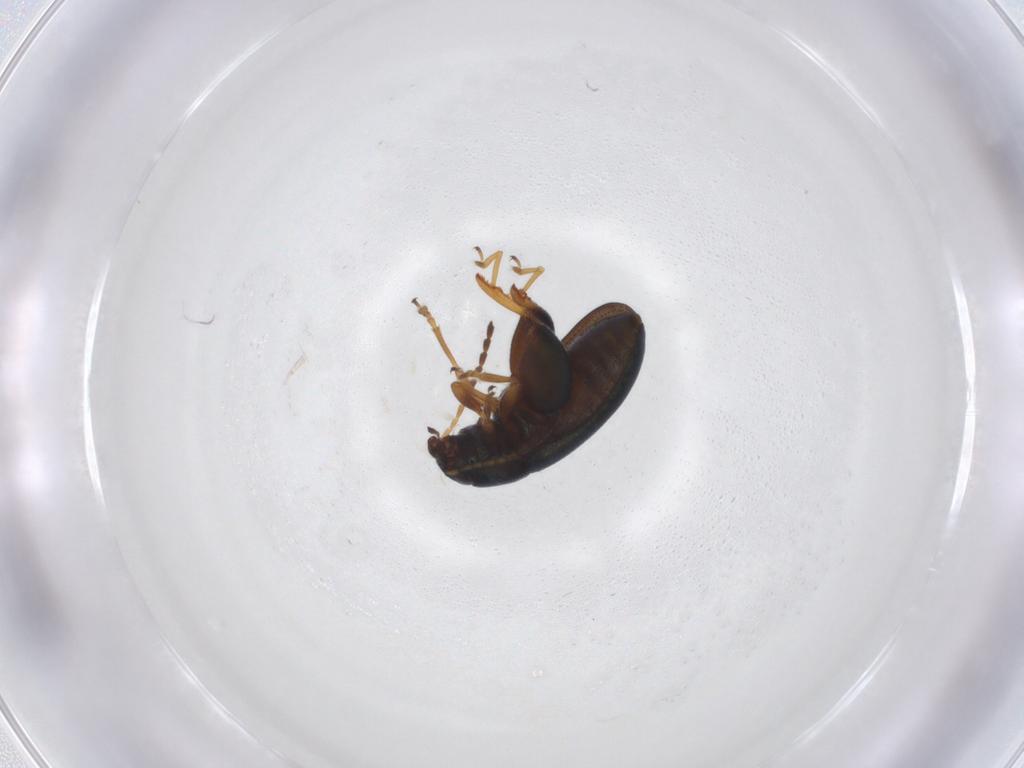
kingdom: Animalia
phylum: Arthropoda
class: Insecta
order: Coleoptera
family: Chrysomelidae
